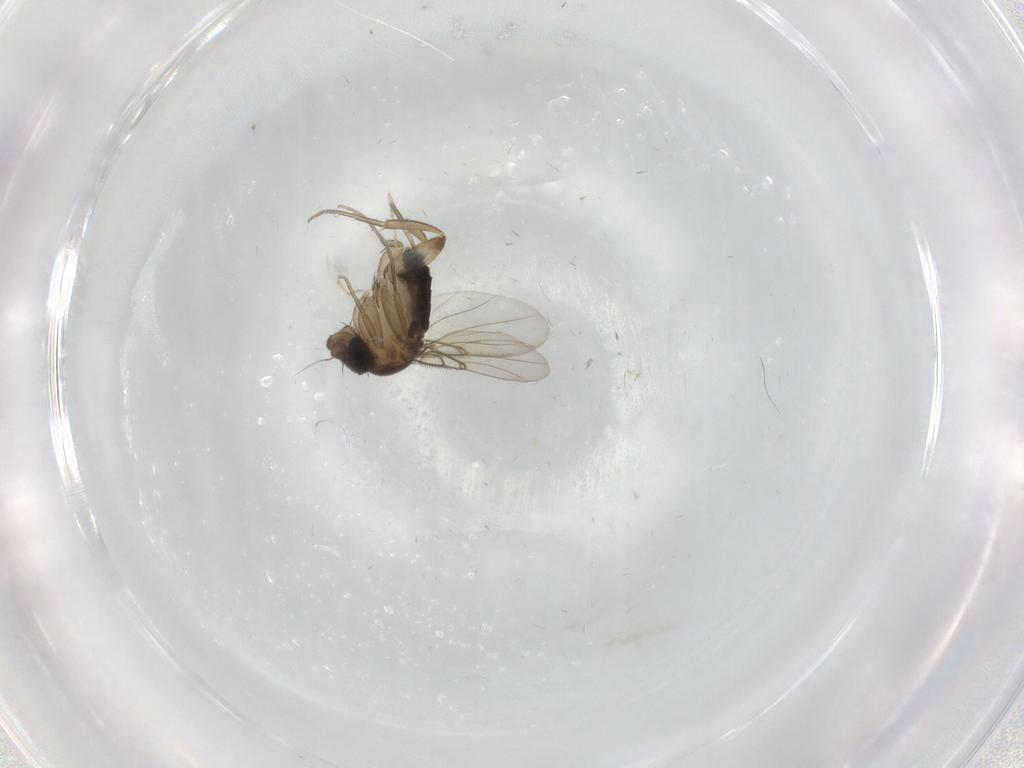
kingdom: Animalia
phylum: Arthropoda
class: Insecta
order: Diptera
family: Phoridae
